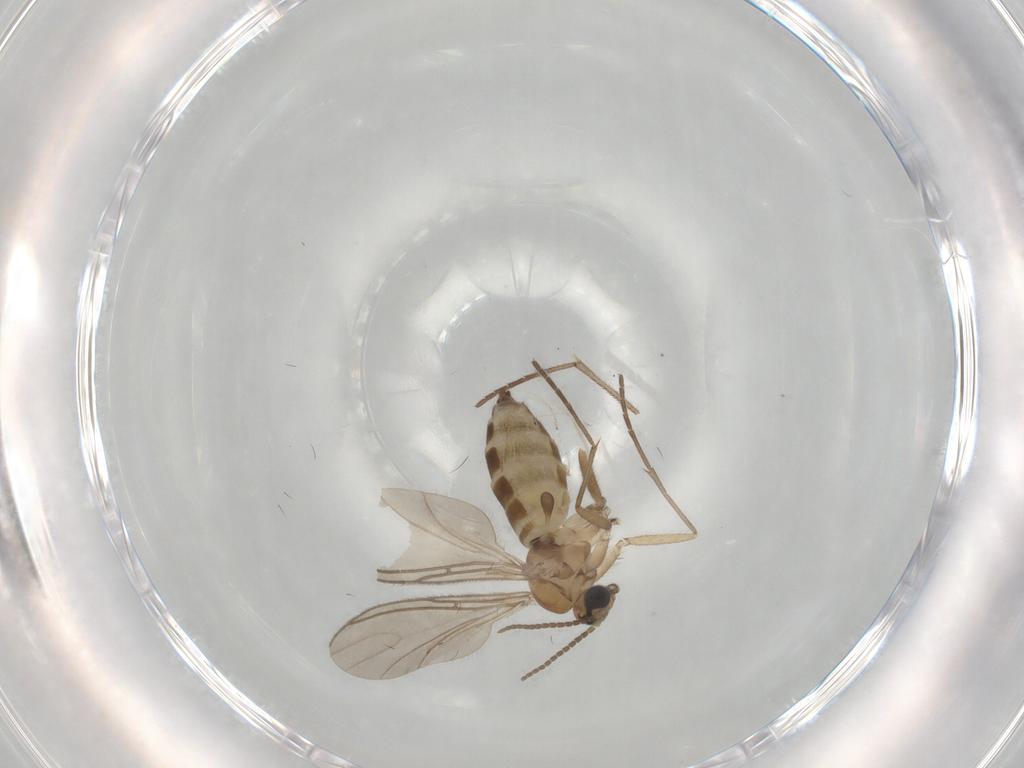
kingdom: Animalia
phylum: Arthropoda
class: Insecta
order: Diptera
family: Sciaridae
